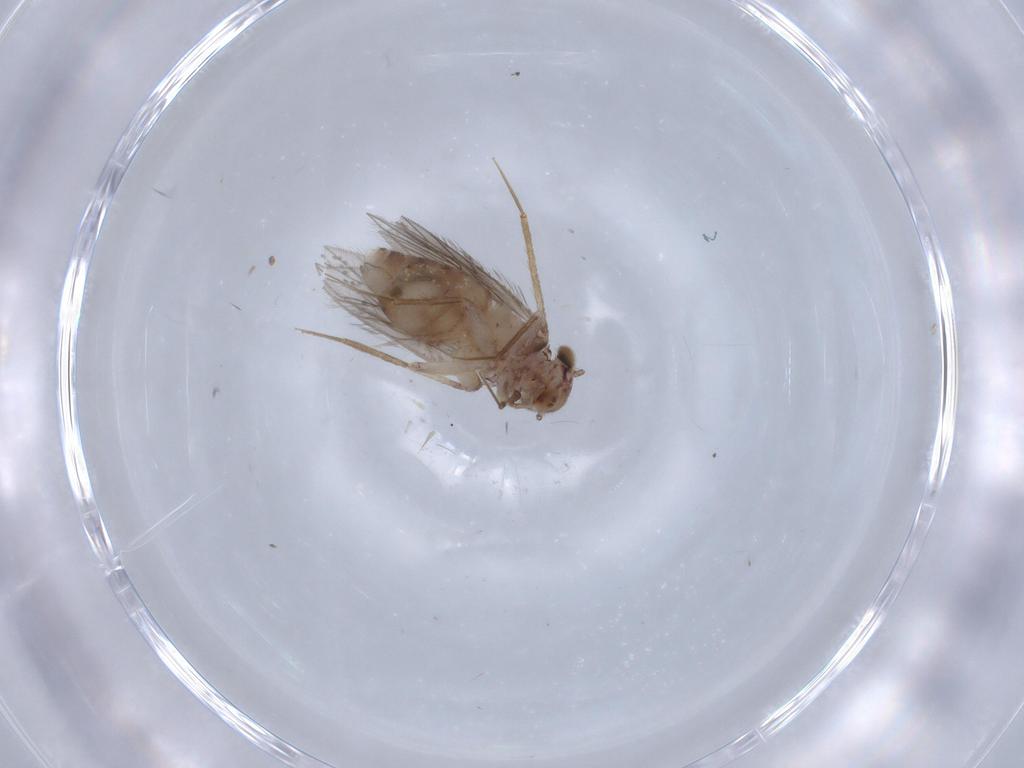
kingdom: Animalia
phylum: Arthropoda
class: Insecta
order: Psocodea
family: Lepidopsocidae
